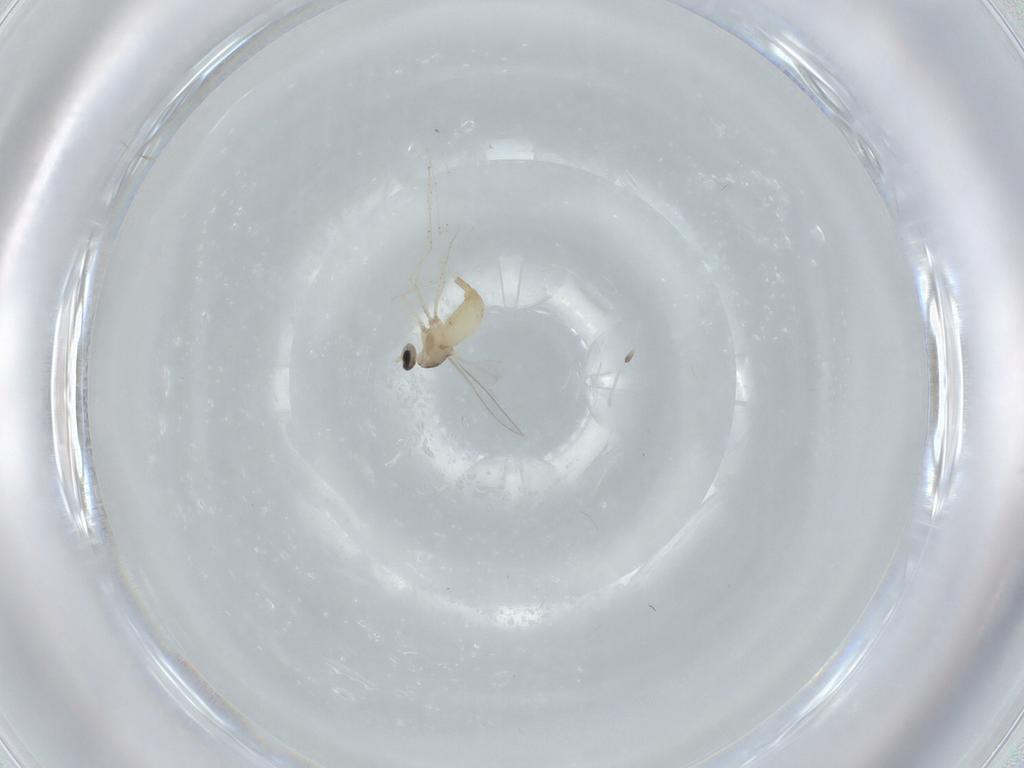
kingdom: Animalia
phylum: Arthropoda
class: Insecta
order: Diptera
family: Cecidomyiidae
